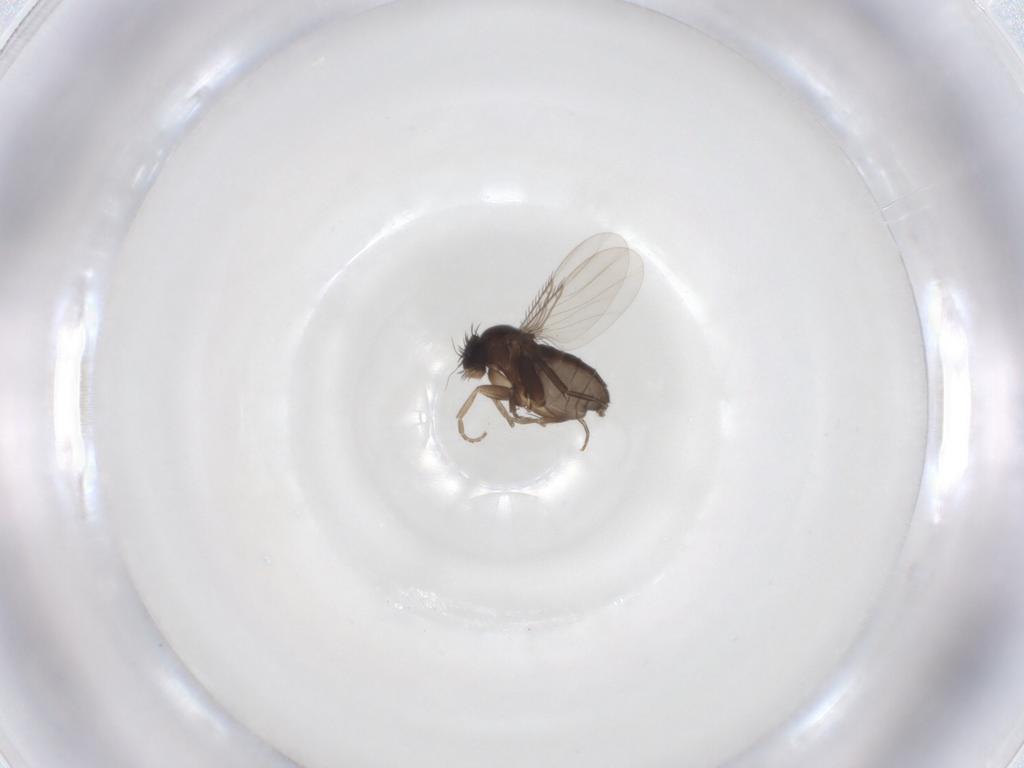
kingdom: Animalia
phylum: Arthropoda
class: Insecta
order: Diptera
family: Phoridae
